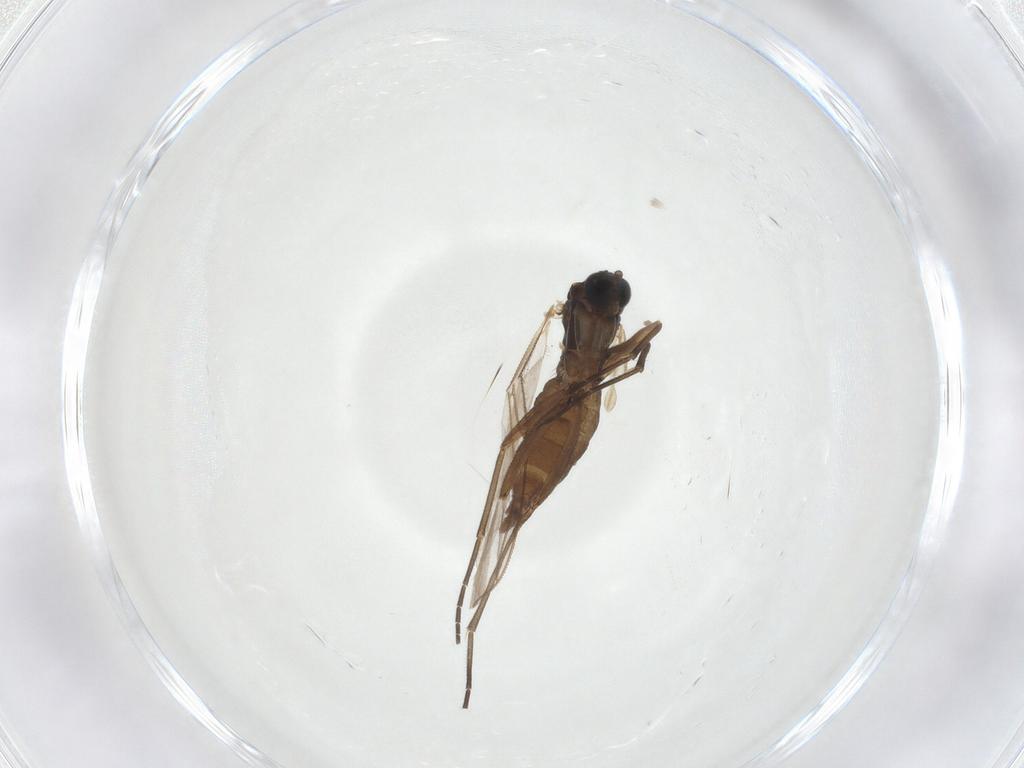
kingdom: Animalia
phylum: Arthropoda
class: Insecta
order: Diptera
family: Sciaridae
